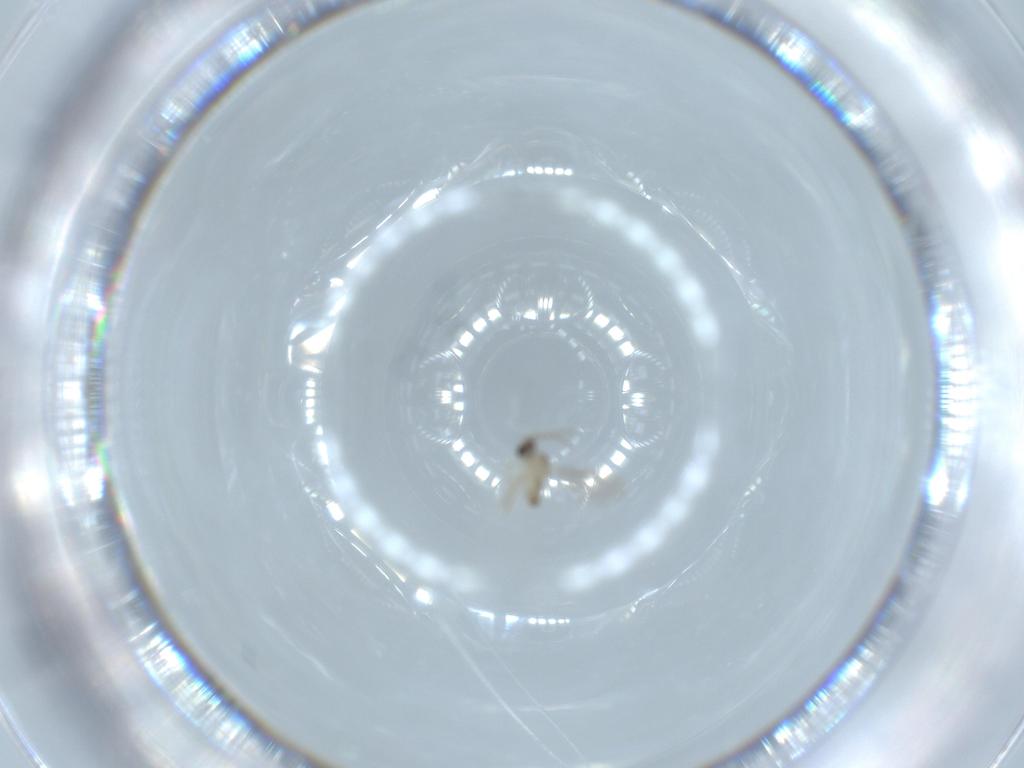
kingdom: Animalia
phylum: Arthropoda
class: Insecta
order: Diptera
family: Cecidomyiidae
